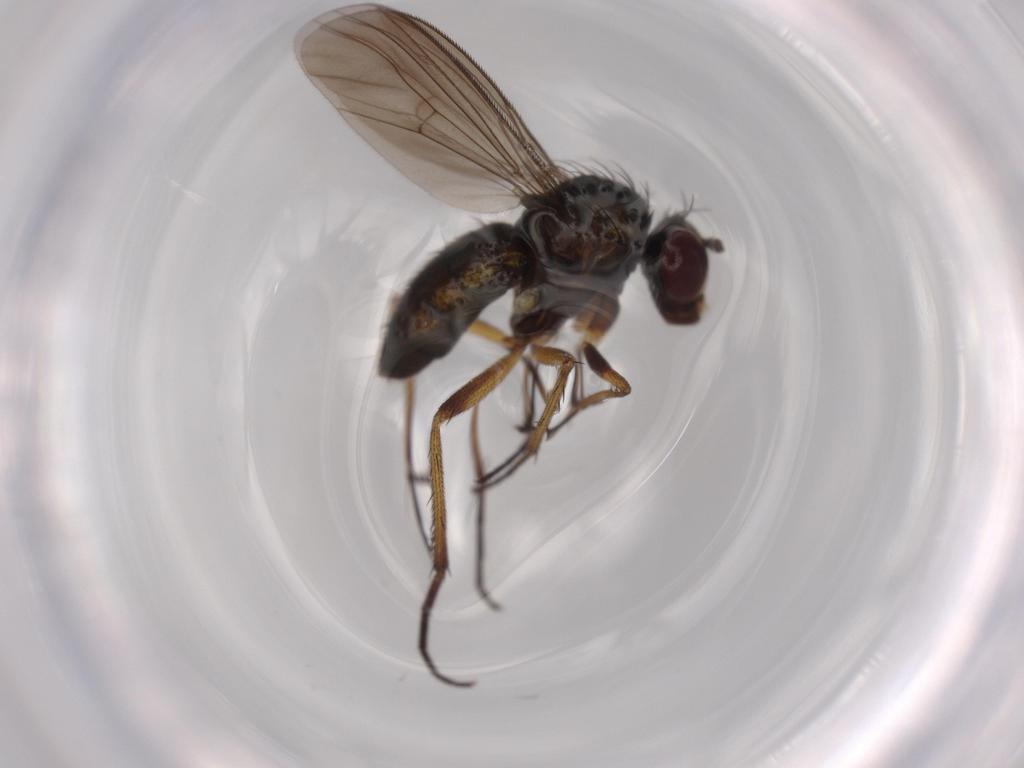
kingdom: Animalia
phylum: Arthropoda
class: Insecta
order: Diptera
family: Dolichopodidae
